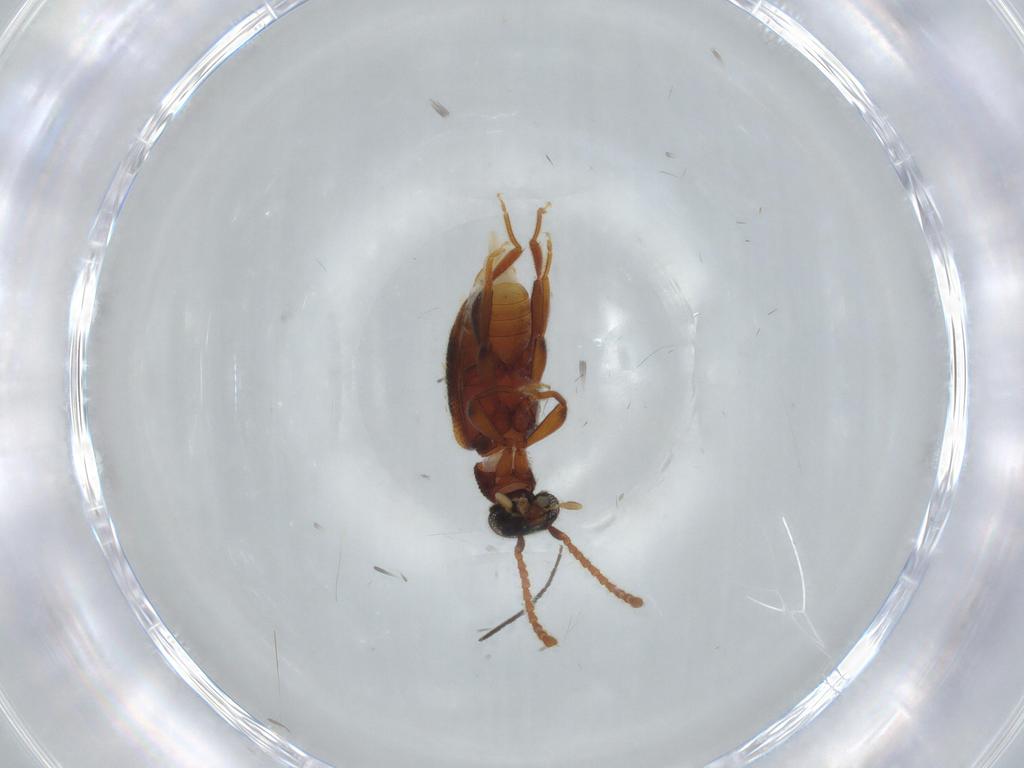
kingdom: Animalia
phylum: Arthropoda
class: Insecta
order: Coleoptera
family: Aderidae
